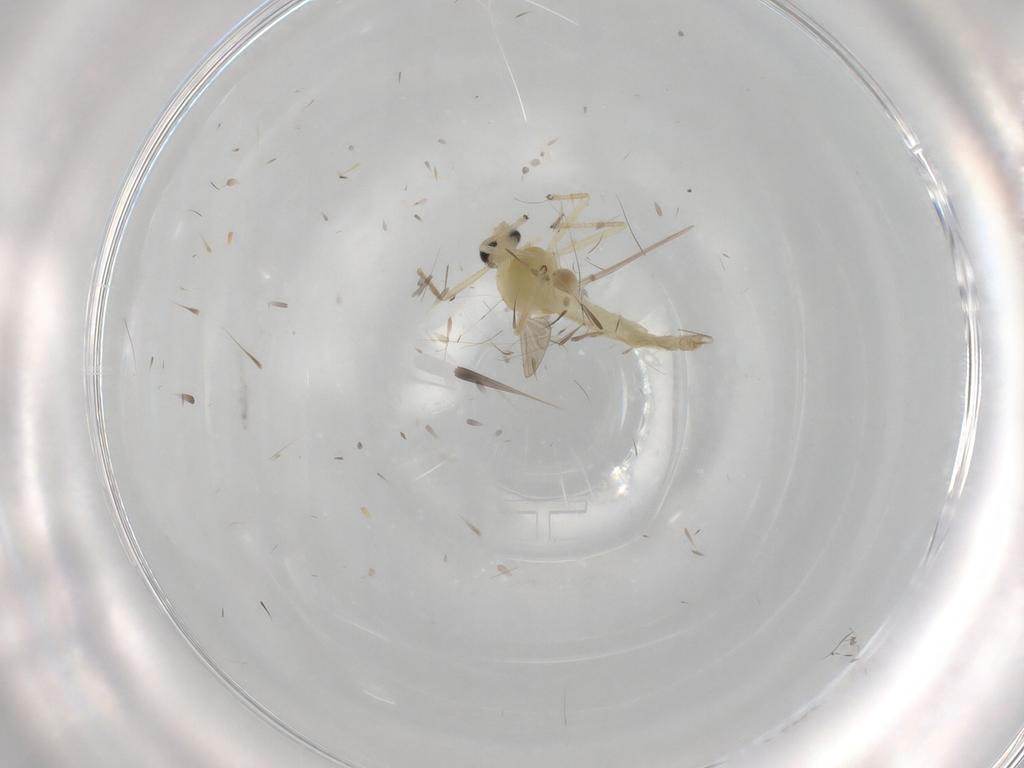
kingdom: Animalia
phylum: Arthropoda
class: Insecta
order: Diptera
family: Chironomidae
